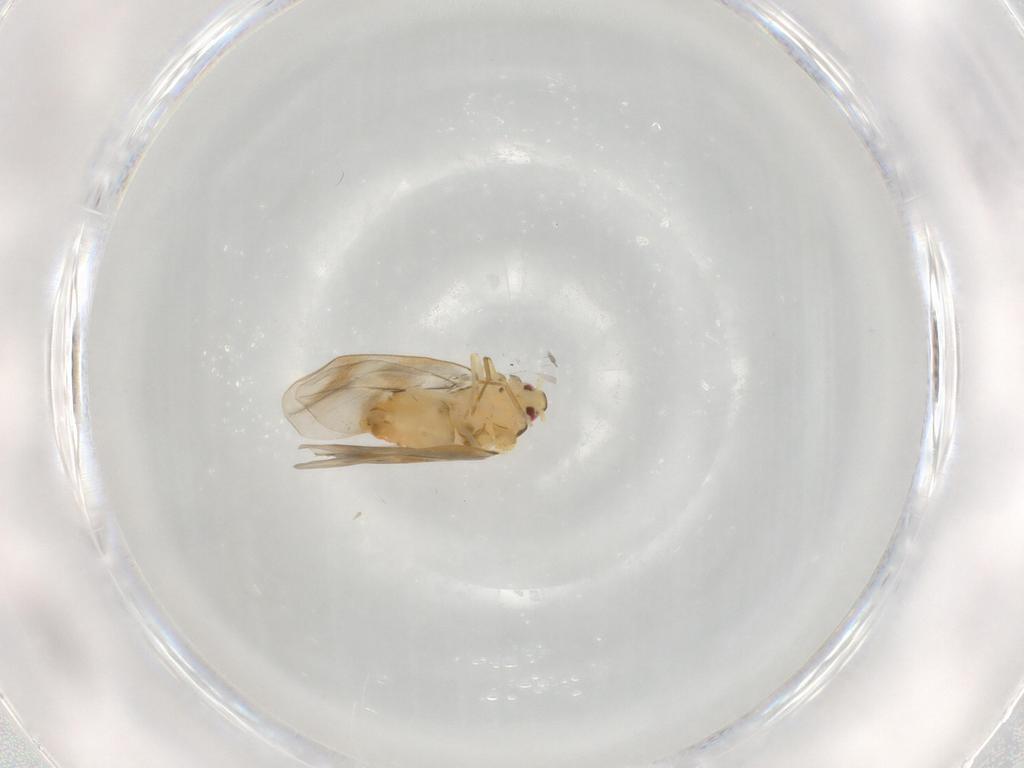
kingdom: Animalia
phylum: Arthropoda
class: Insecta
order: Hemiptera
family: Aleyrodidae
